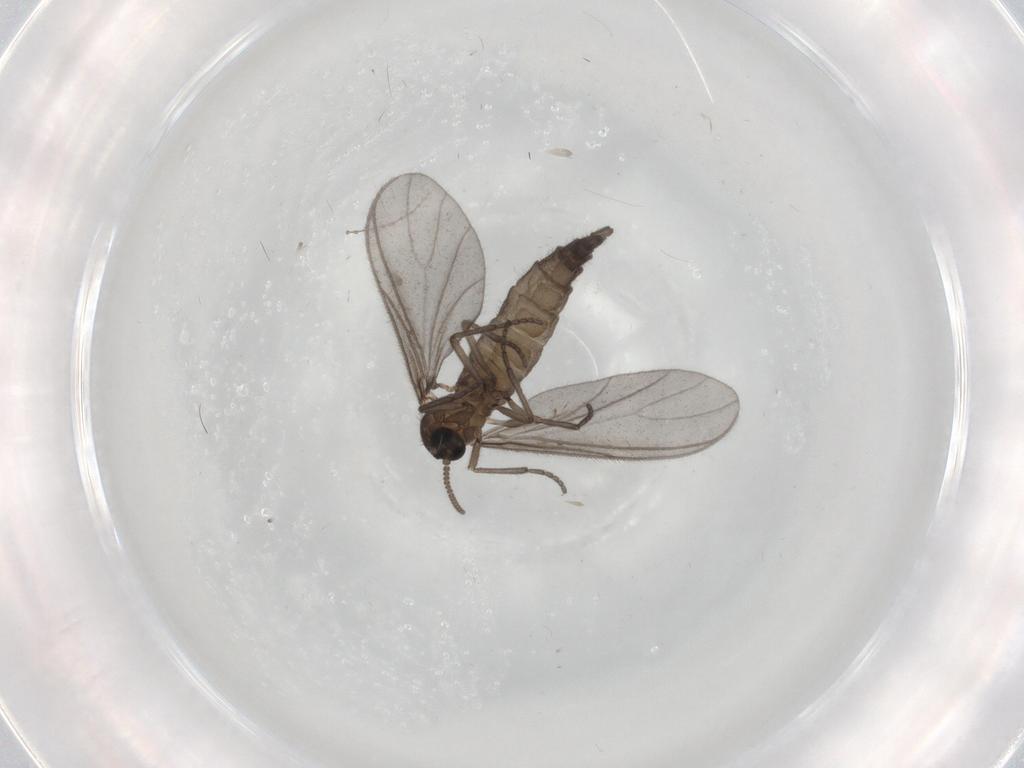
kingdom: Animalia
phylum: Arthropoda
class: Insecta
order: Diptera
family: Sciaridae
